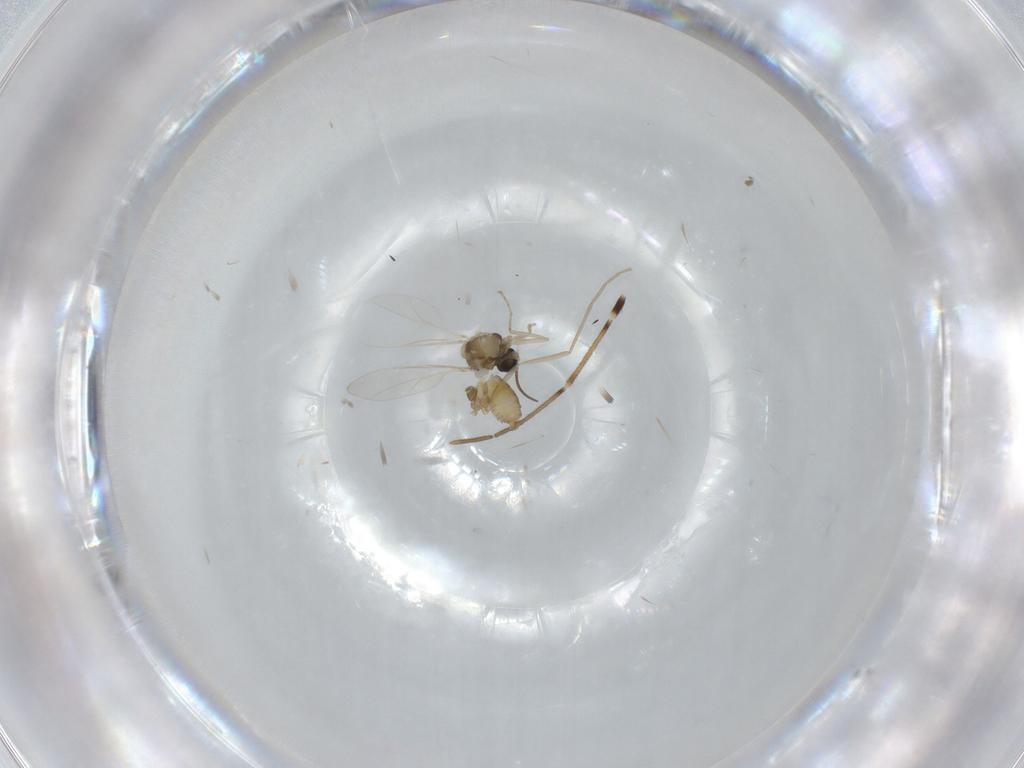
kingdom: Animalia
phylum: Arthropoda
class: Insecta
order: Diptera
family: Cecidomyiidae
